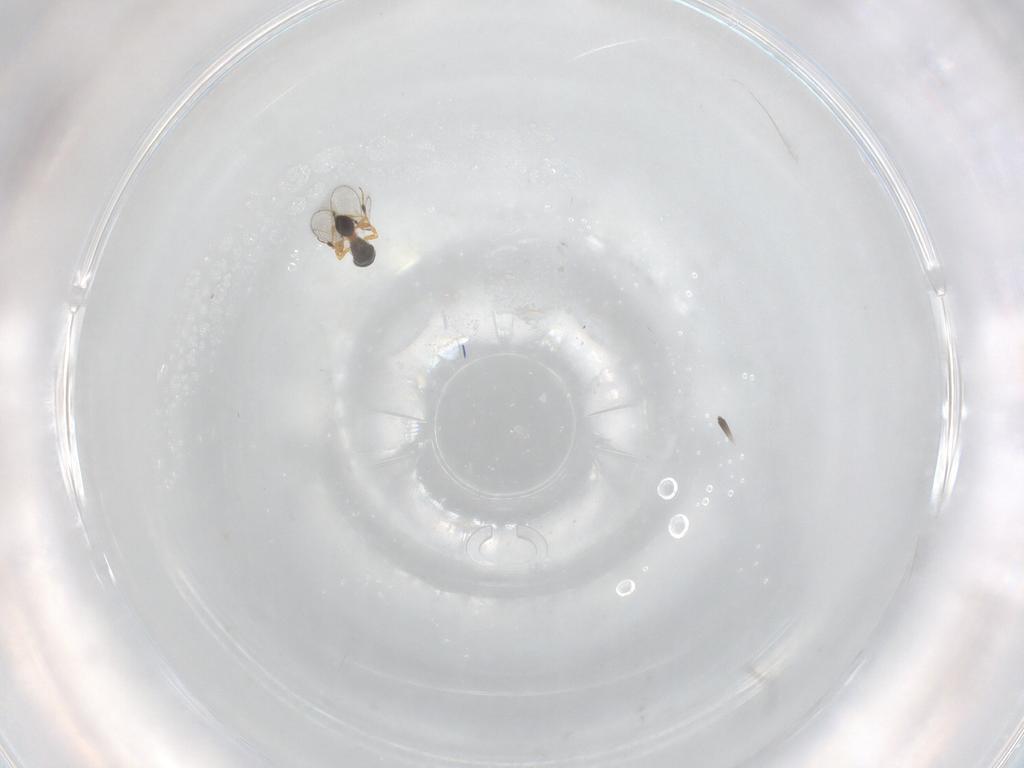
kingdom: Animalia
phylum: Arthropoda
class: Insecta
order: Hymenoptera
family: Platygastridae
